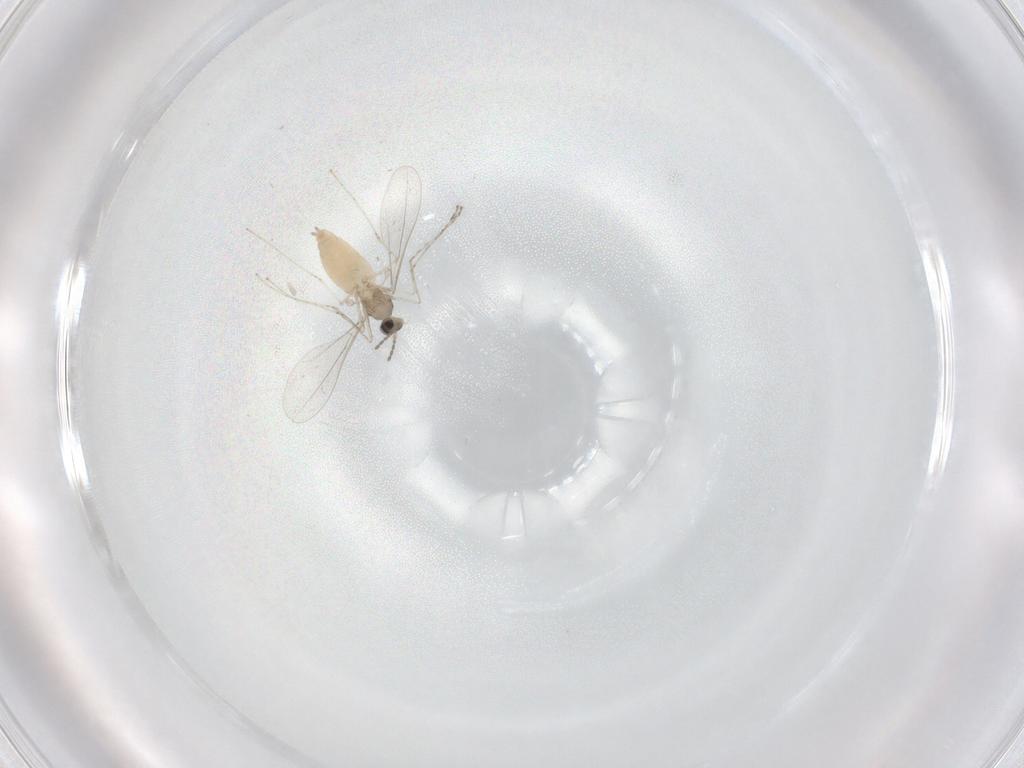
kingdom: Animalia
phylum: Arthropoda
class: Insecta
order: Diptera
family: Cecidomyiidae
